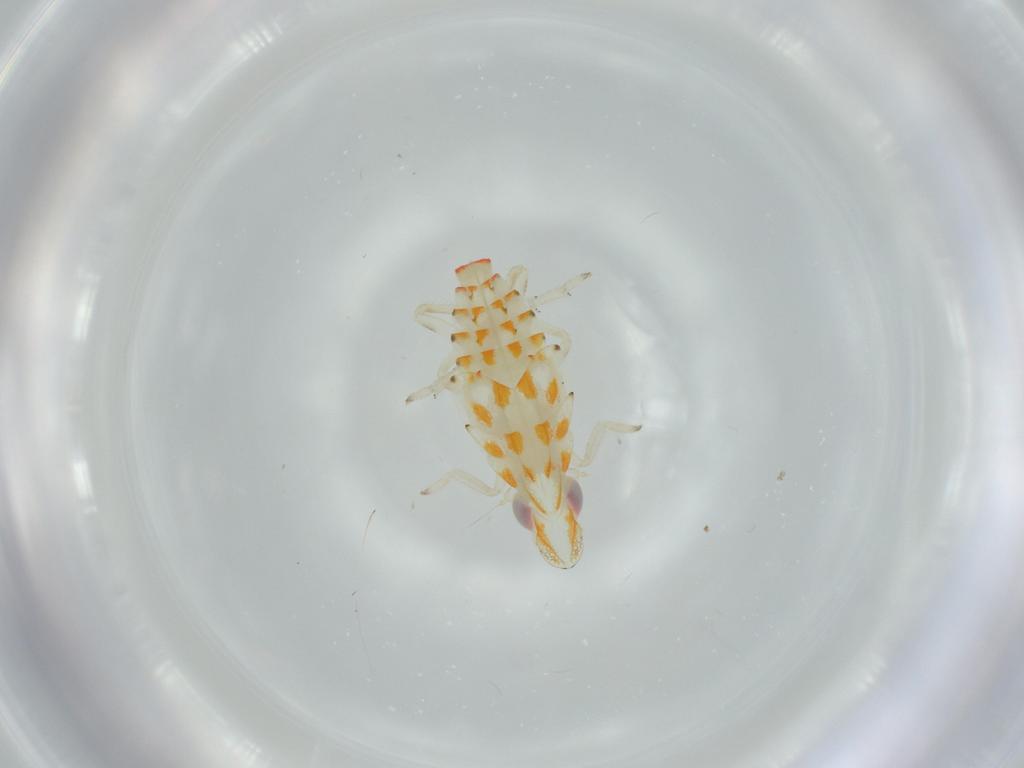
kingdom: Animalia
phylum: Arthropoda
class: Insecta
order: Hemiptera
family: Tropiduchidae
